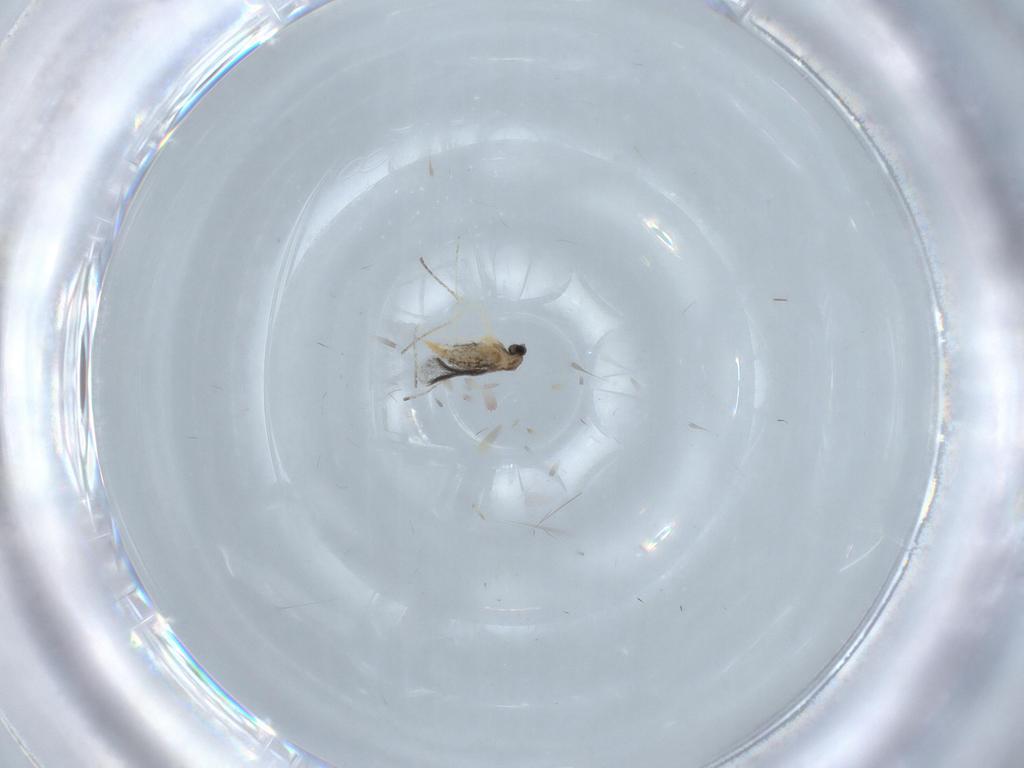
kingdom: Animalia
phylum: Arthropoda
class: Insecta
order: Diptera
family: Cecidomyiidae
